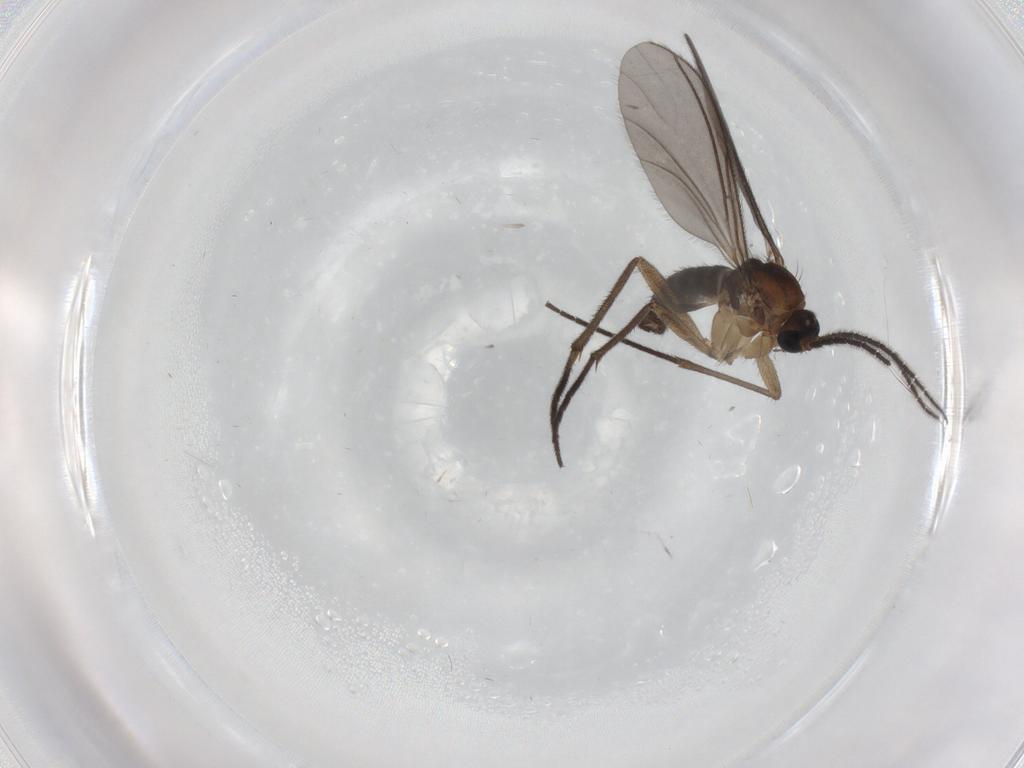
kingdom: Animalia
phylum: Arthropoda
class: Insecta
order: Diptera
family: Sciaridae
